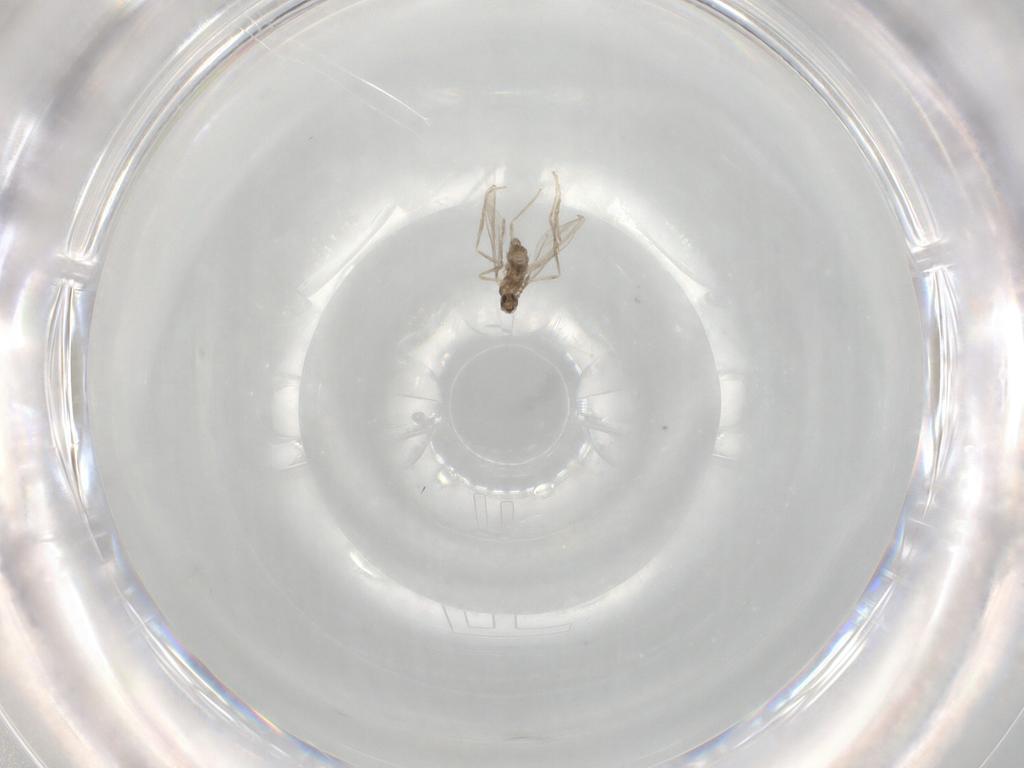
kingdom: Animalia
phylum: Arthropoda
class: Insecta
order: Diptera
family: Cecidomyiidae
